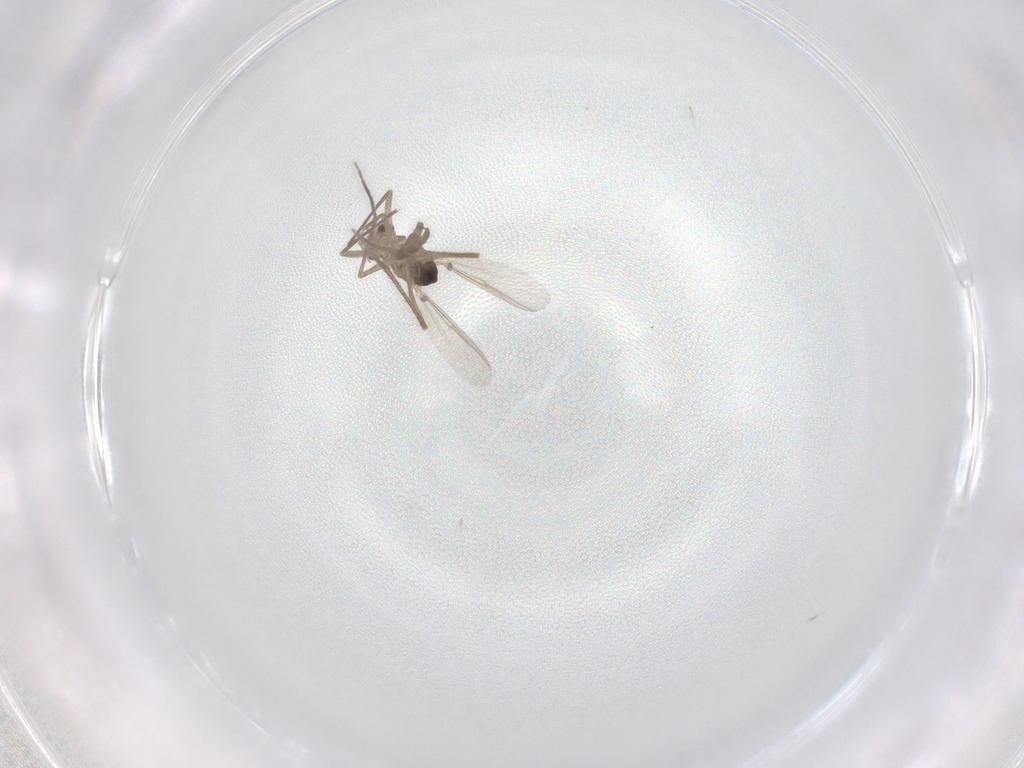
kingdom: Animalia
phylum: Arthropoda
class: Insecta
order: Diptera
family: Chironomidae
